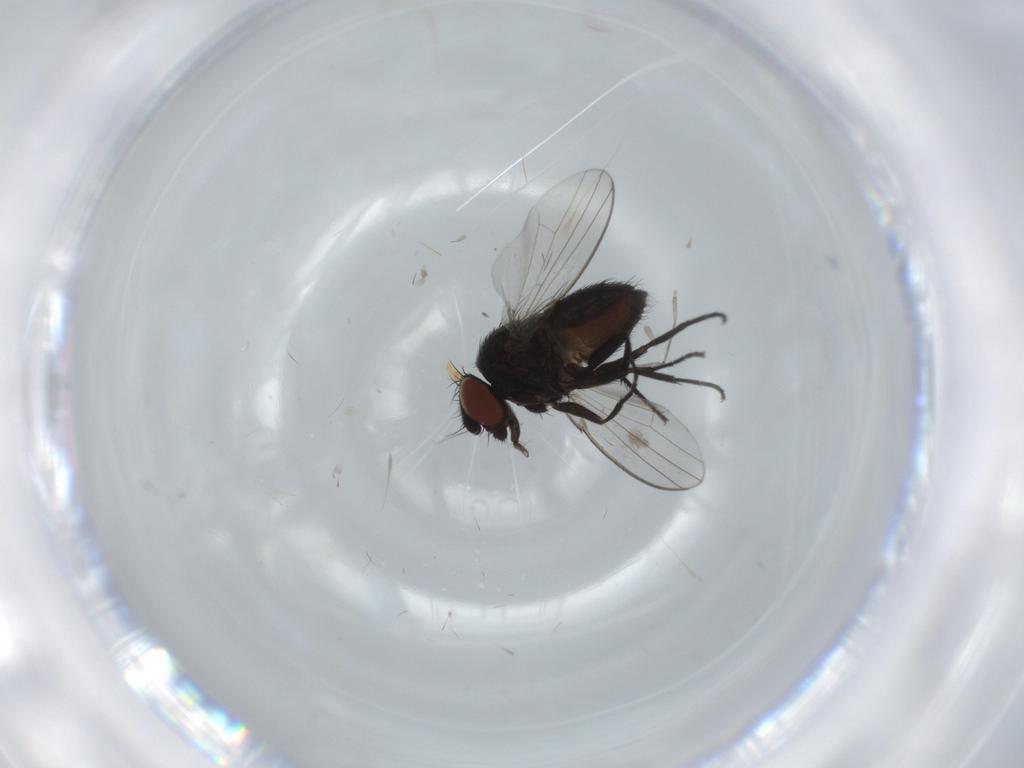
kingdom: Animalia
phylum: Arthropoda
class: Insecta
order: Diptera
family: Milichiidae
